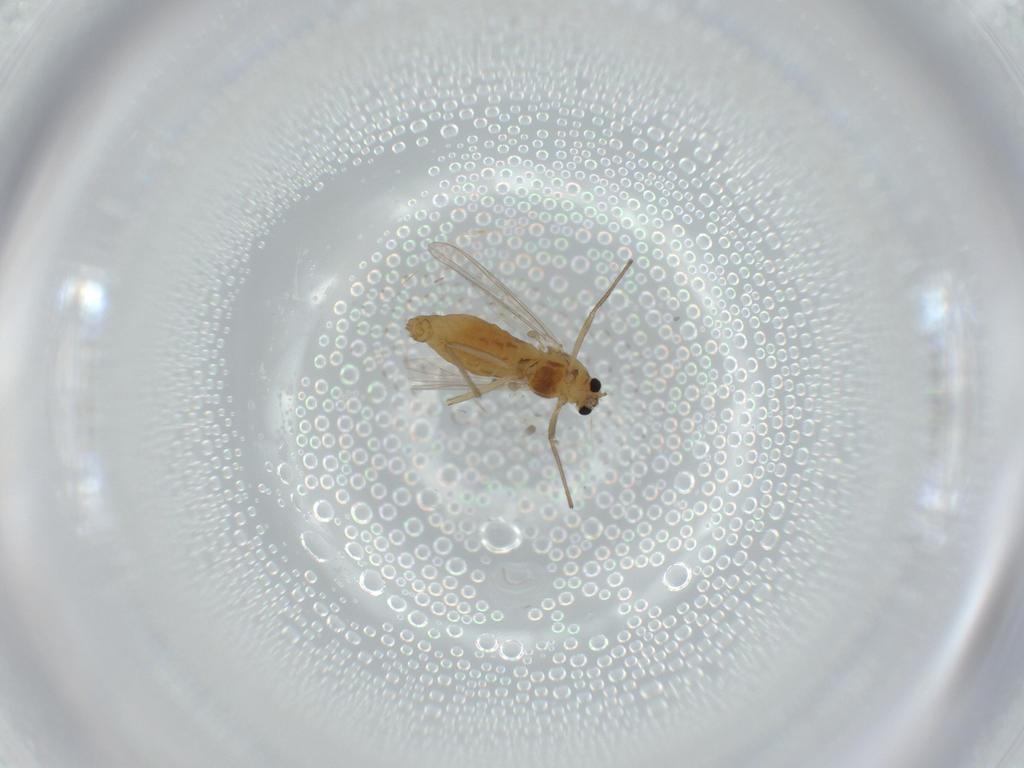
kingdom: Animalia
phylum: Arthropoda
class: Insecta
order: Diptera
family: Chironomidae
